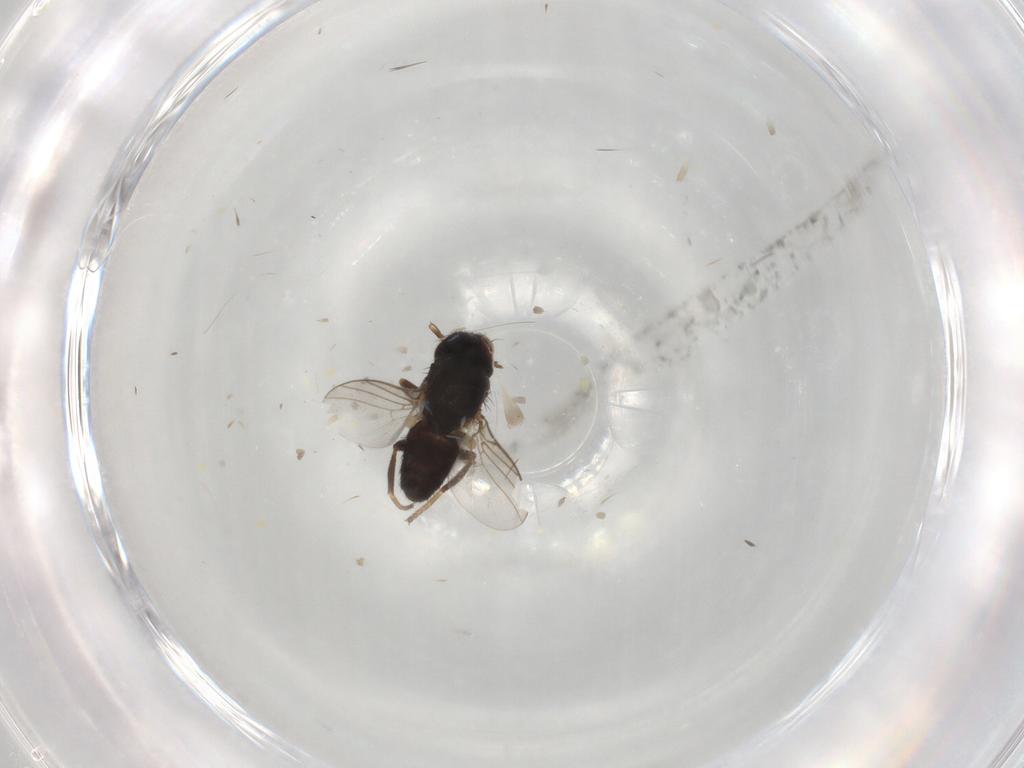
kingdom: Animalia
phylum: Arthropoda
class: Insecta
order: Diptera
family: Chloropidae
